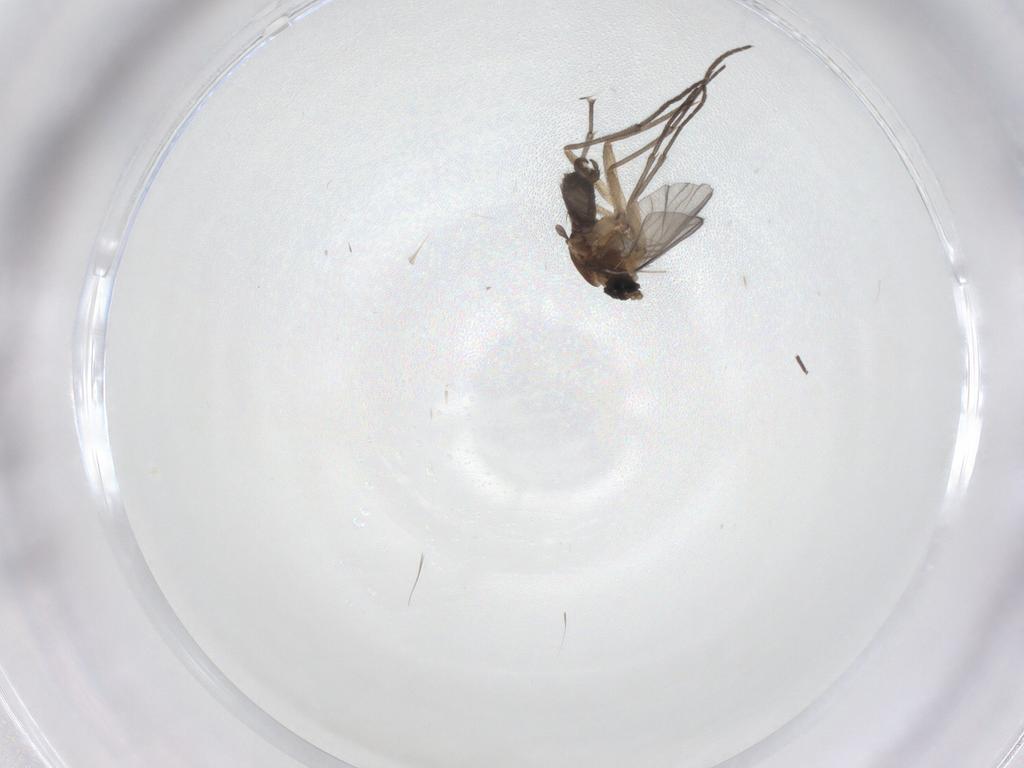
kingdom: Animalia
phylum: Arthropoda
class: Insecta
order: Diptera
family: Sciaridae
